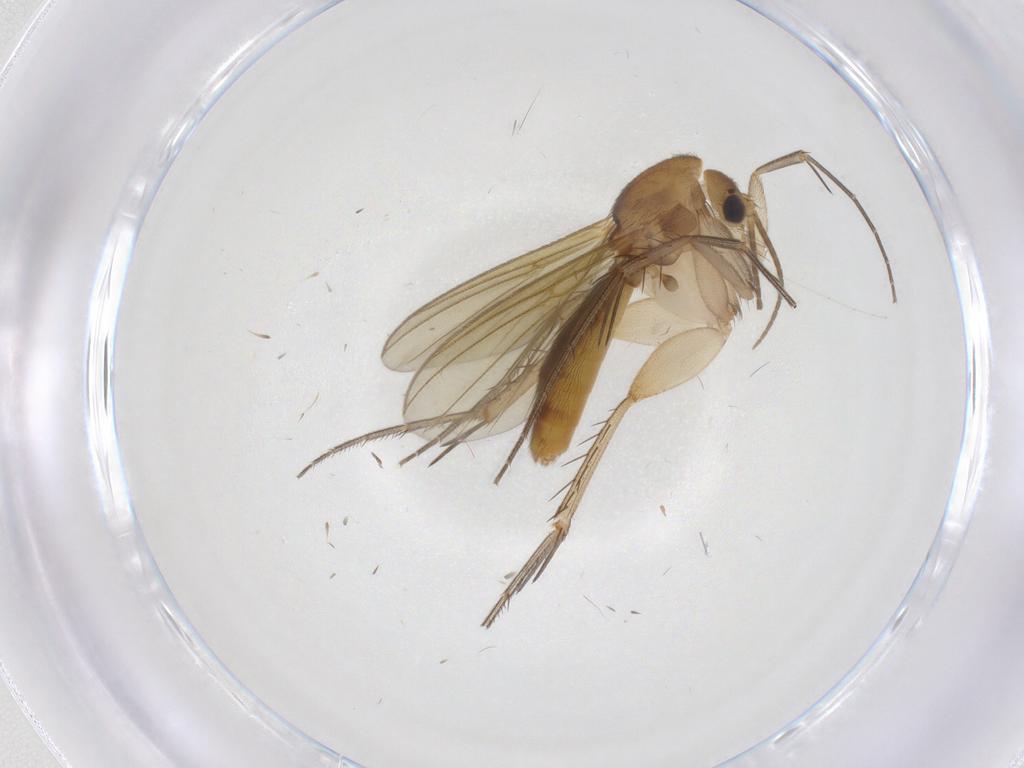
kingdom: Animalia
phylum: Arthropoda
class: Insecta
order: Diptera
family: Mycetophilidae
